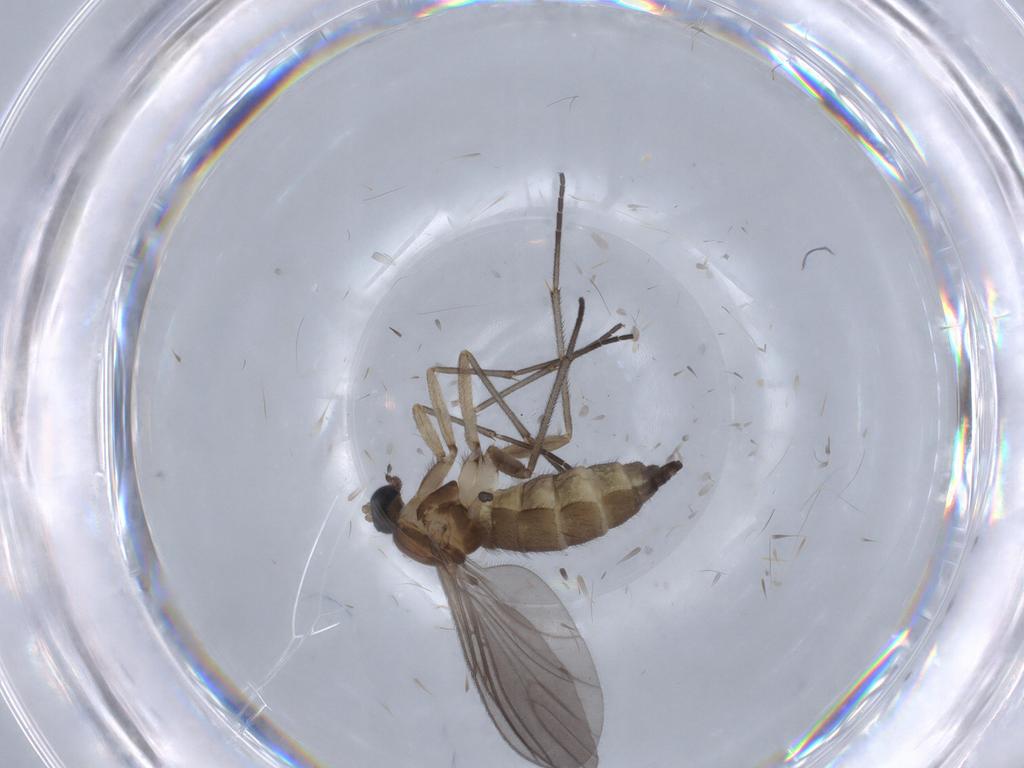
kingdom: Animalia
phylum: Arthropoda
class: Insecta
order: Diptera
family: Sciaridae
